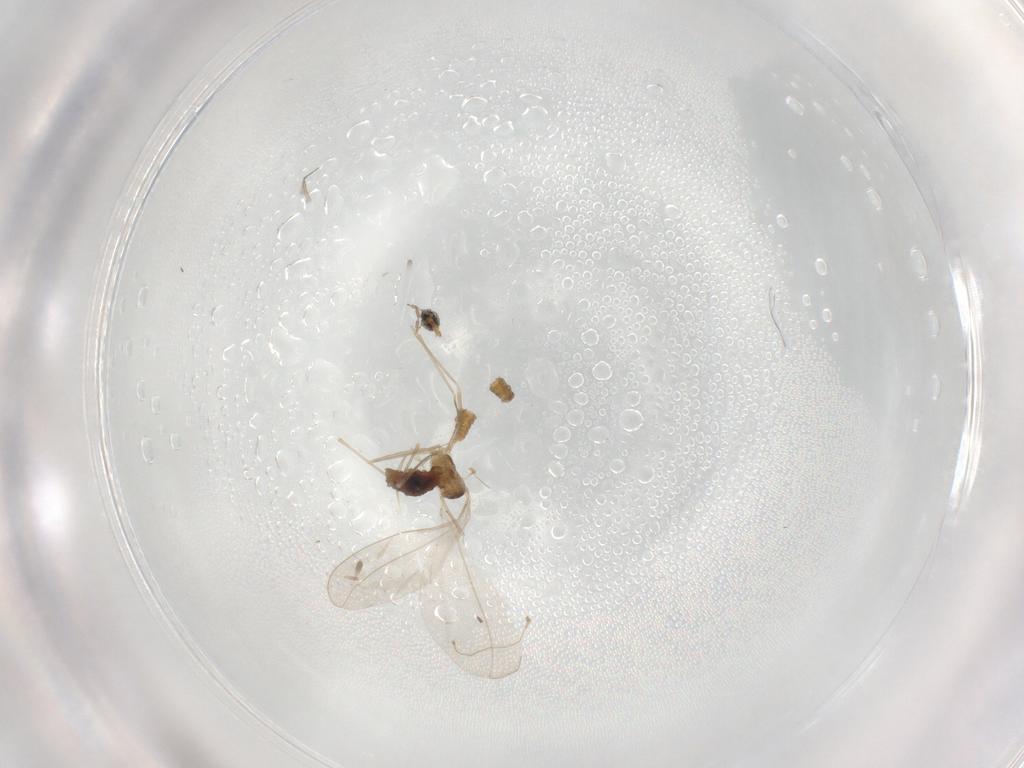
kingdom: Animalia
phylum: Arthropoda
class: Insecta
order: Diptera
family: Cecidomyiidae
